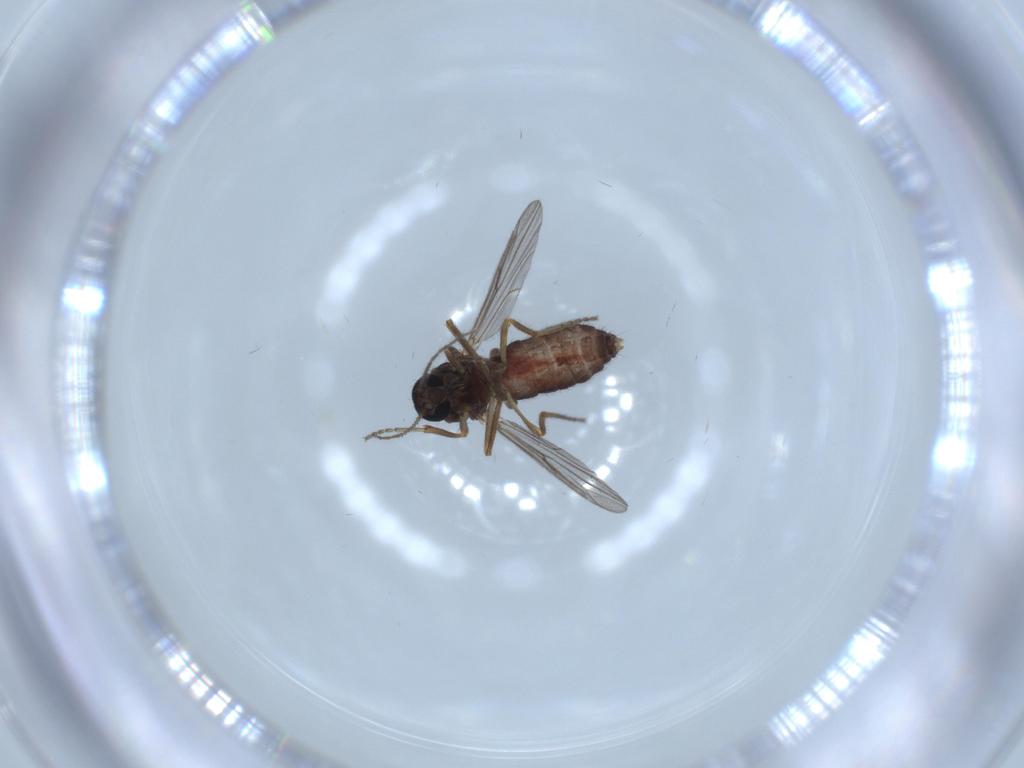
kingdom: Animalia
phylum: Arthropoda
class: Insecta
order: Diptera
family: Ceratopogonidae
